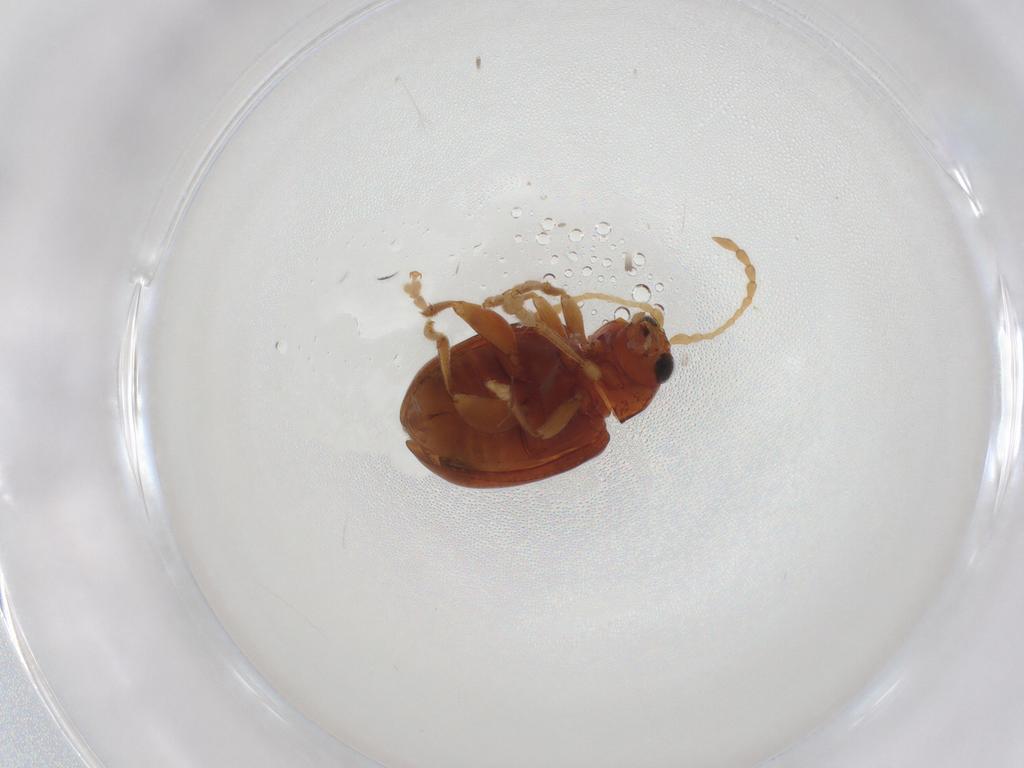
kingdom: Animalia
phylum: Arthropoda
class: Insecta
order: Coleoptera
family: Chrysomelidae
